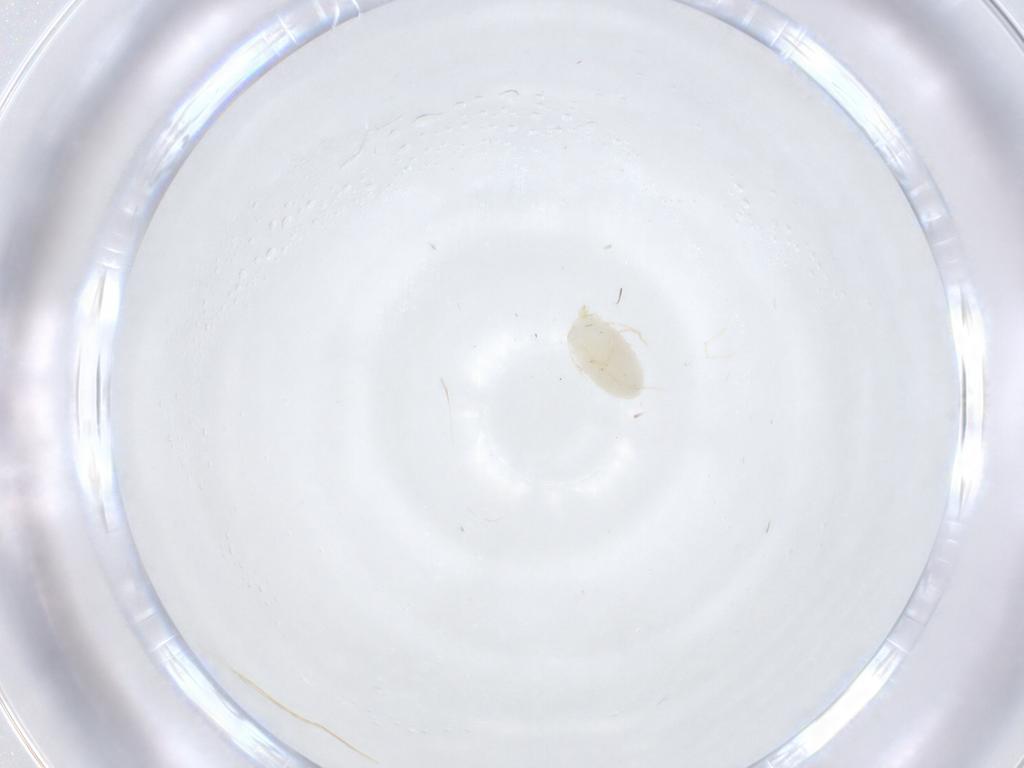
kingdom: Animalia
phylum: Arthropoda
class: Arachnida
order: Trombidiformes
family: Erythraeidae
